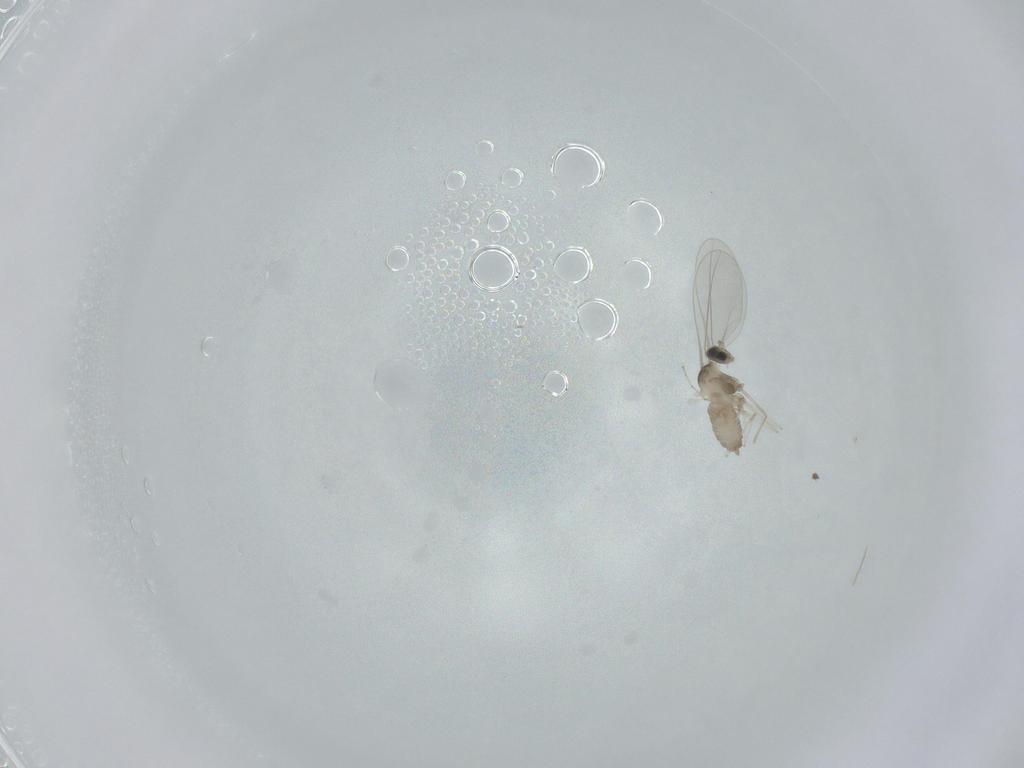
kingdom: Animalia
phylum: Arthropoda
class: Insecta
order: Diptera
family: Cecidomyiidae
